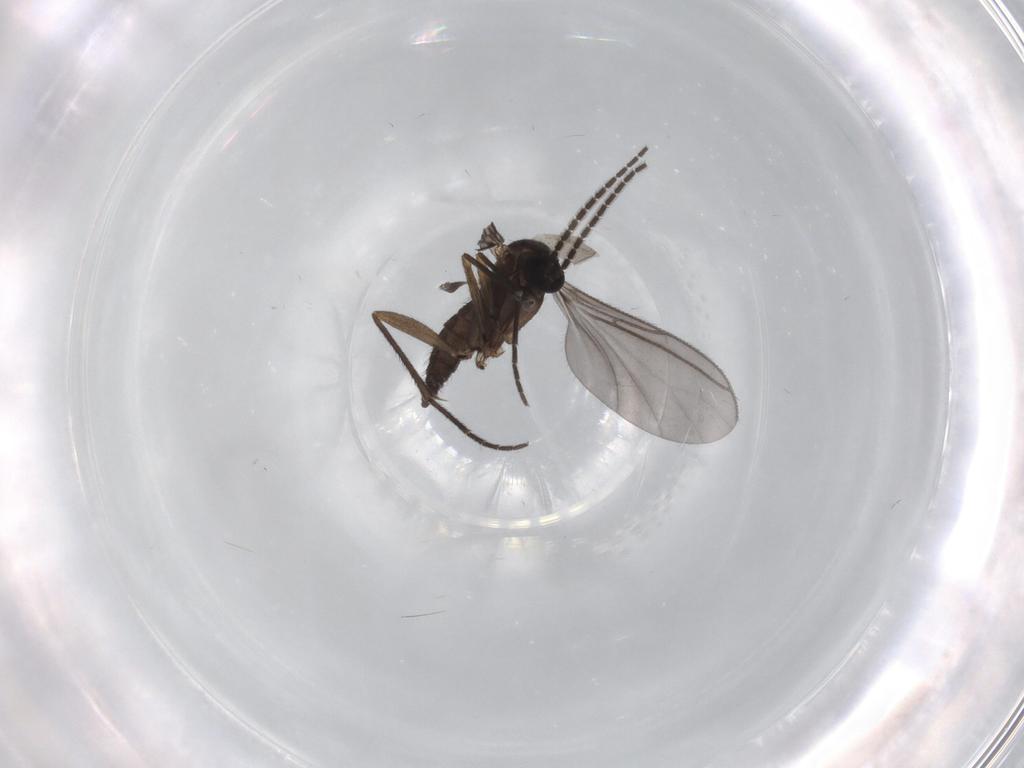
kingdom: Animalia
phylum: Arthropoda
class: Insecta
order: Diptera
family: Sciaridae
